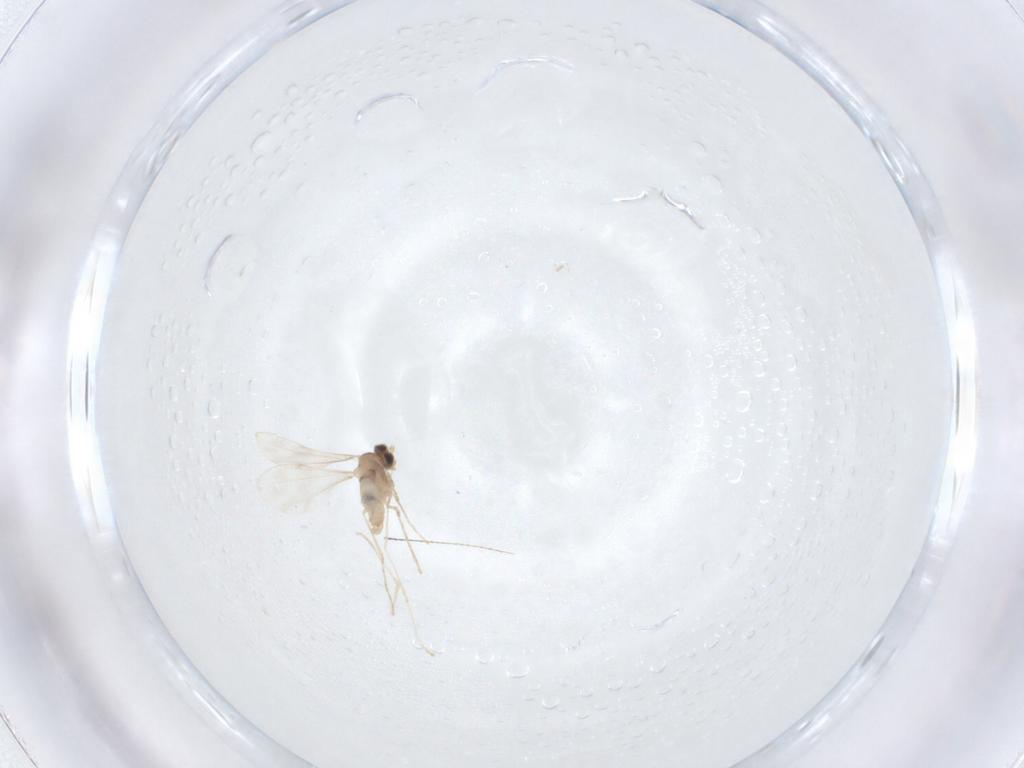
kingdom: Animalia
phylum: Arthropoda
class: Insecta
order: Diptera
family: Cecidomyiidae
